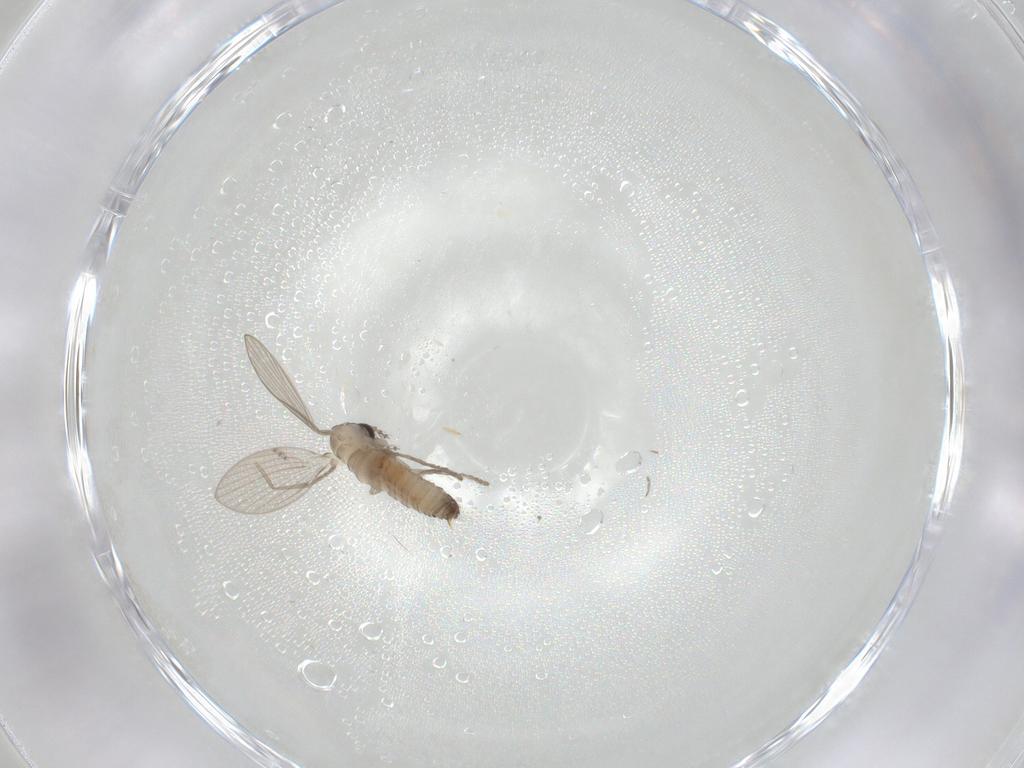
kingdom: Animalia
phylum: Arthropoda
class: Insecta
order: Diptera
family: Psychodidae
